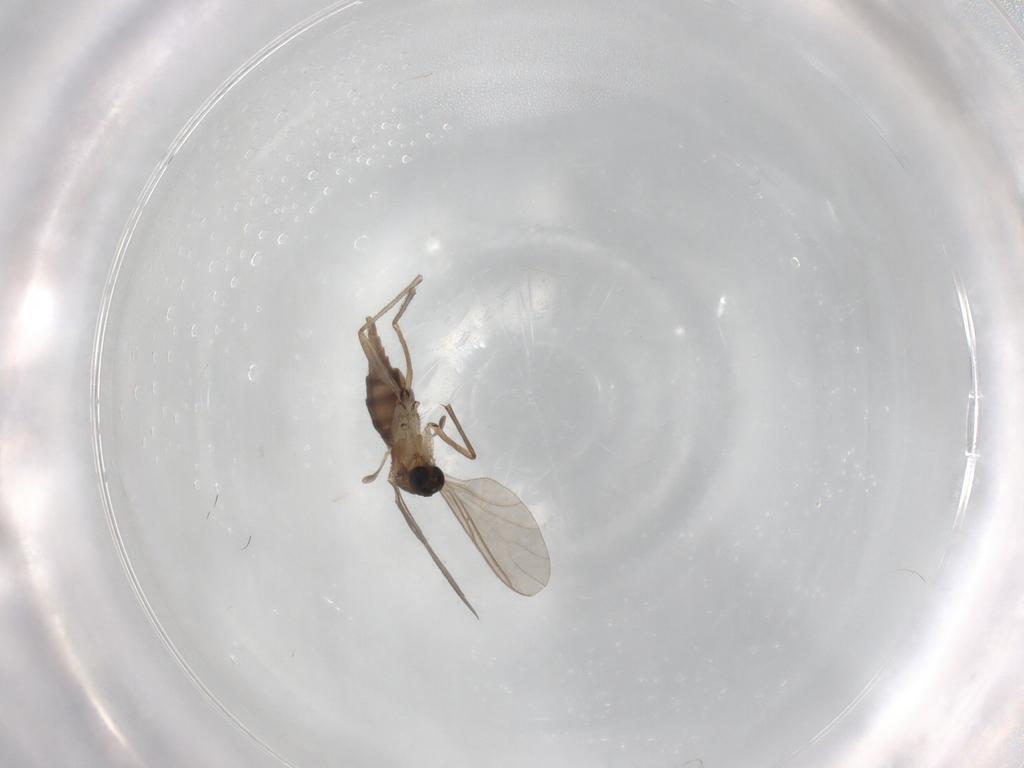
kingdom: Animalia
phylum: Arthropoda
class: Insecta
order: Diptera
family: Sciaridae
